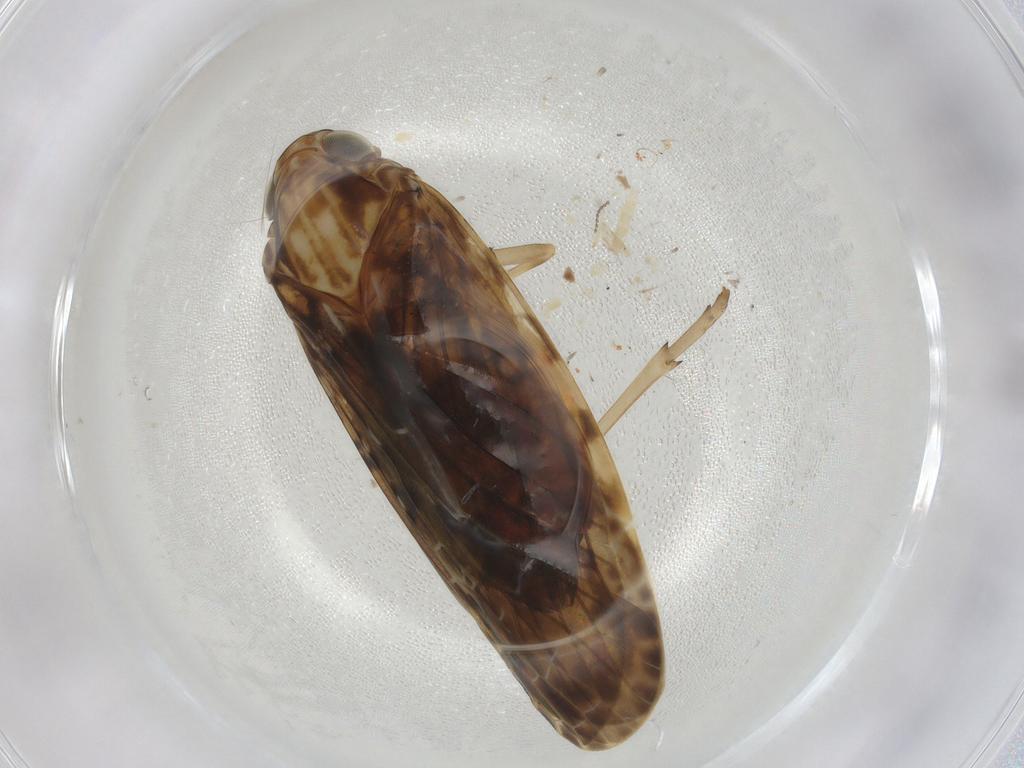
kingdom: Animalia
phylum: Arthropoda
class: Insecta
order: Hemiptera
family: Achilidae
